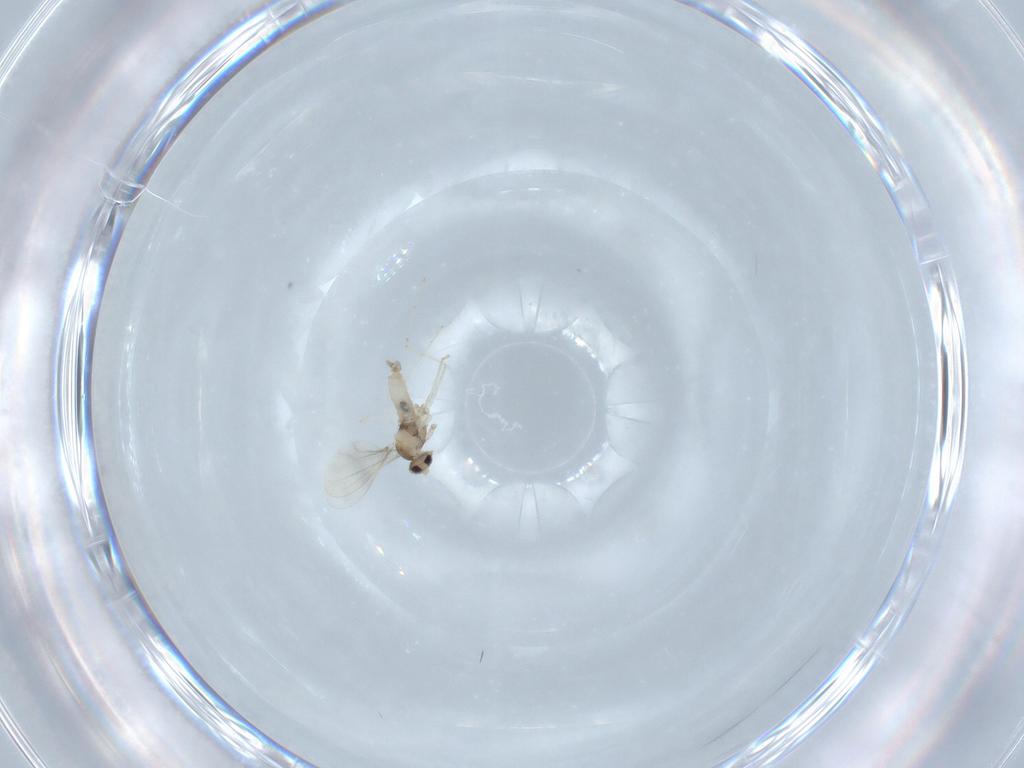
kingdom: Animalia
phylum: Arthropoda
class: Insecta
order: Diptera
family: Cecidomyiidae
